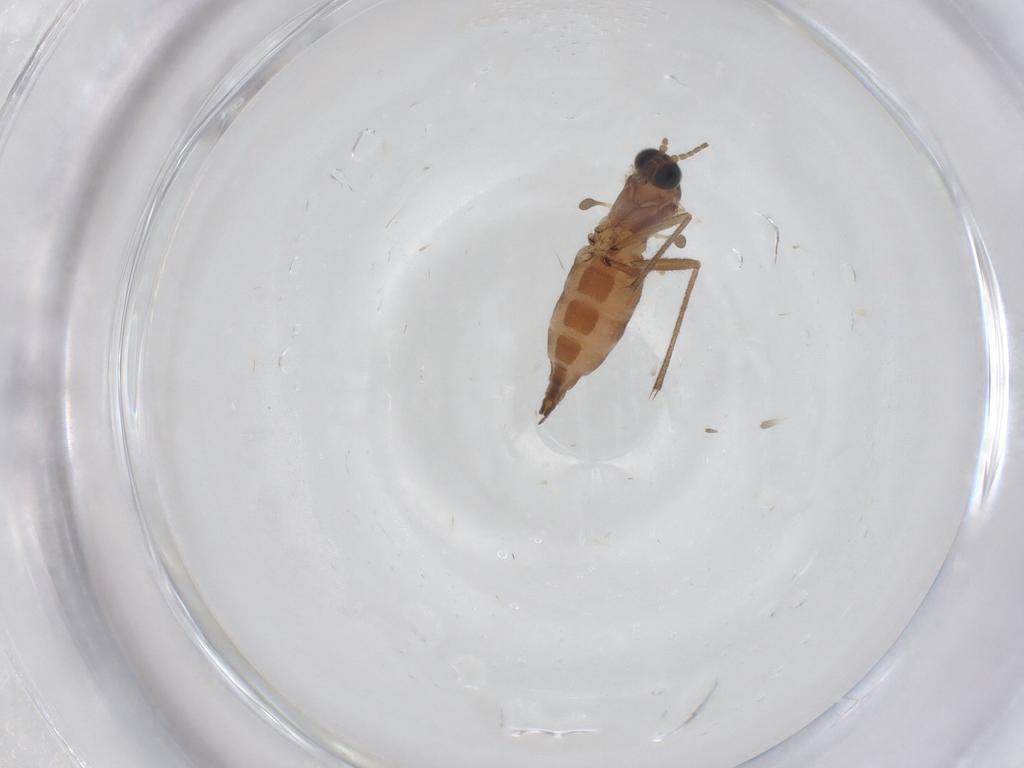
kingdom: Animalia
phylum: Arthropoda
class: Insecta
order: Diptera
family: Sciaridae
